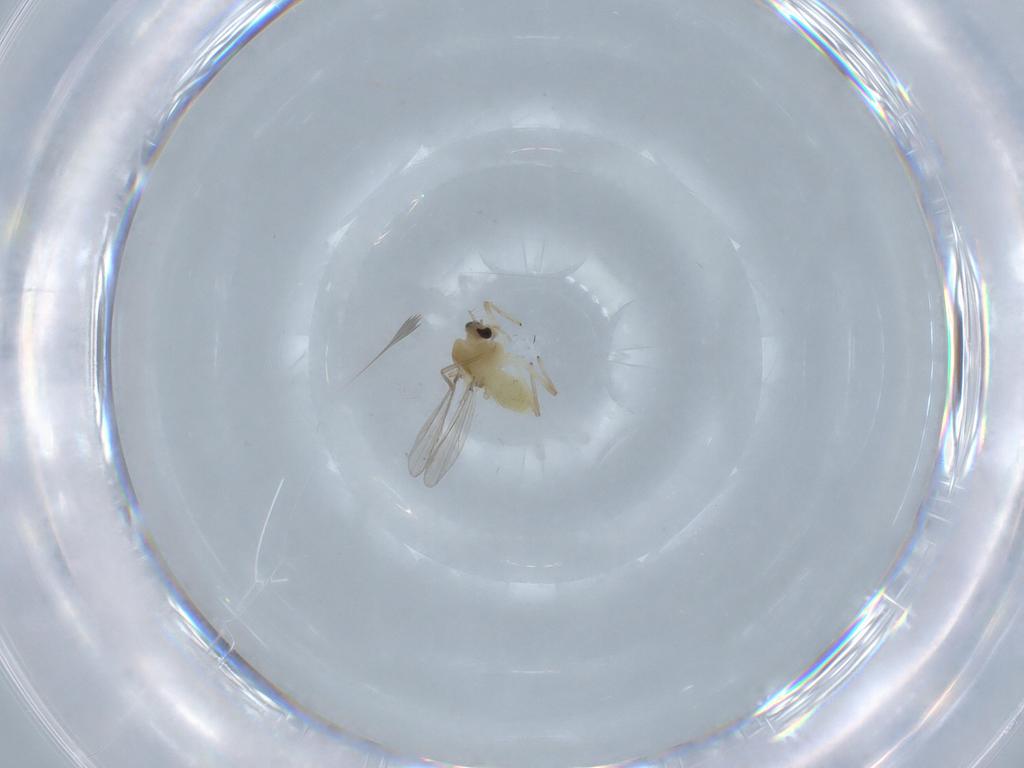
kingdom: Animalia
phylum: Arthropoda
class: Insecta
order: Diptera
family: Chironomidae
